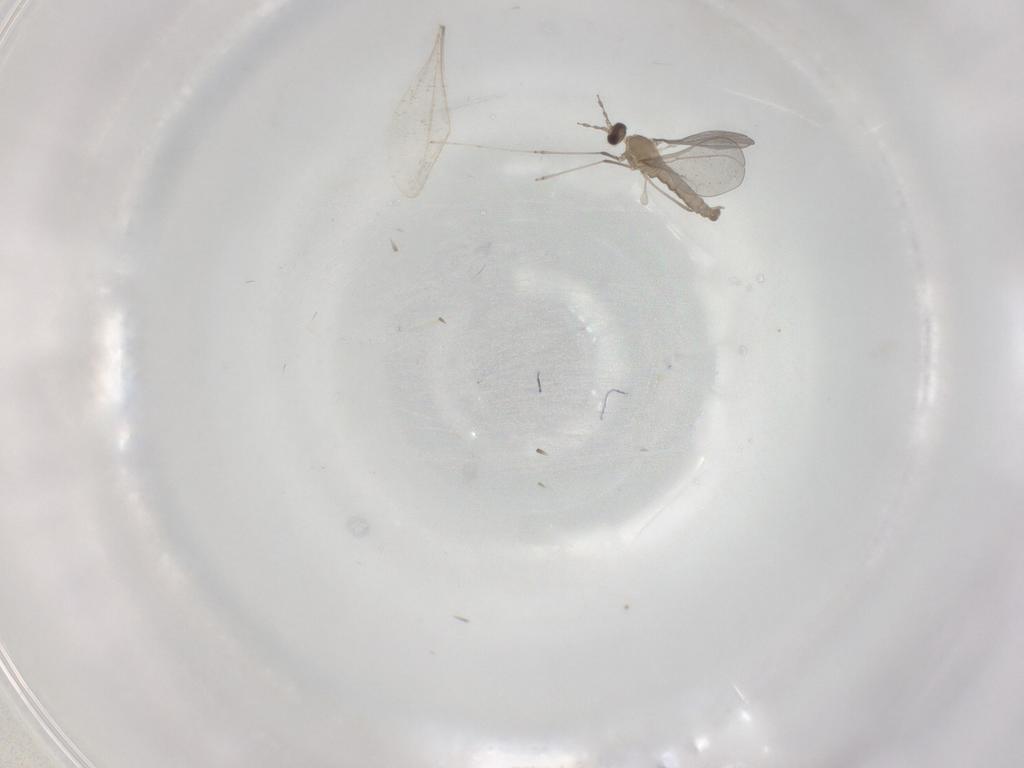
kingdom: Animalia
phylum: Arthropoda
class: Insecta
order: Diptera
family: Cecidomyiidae
